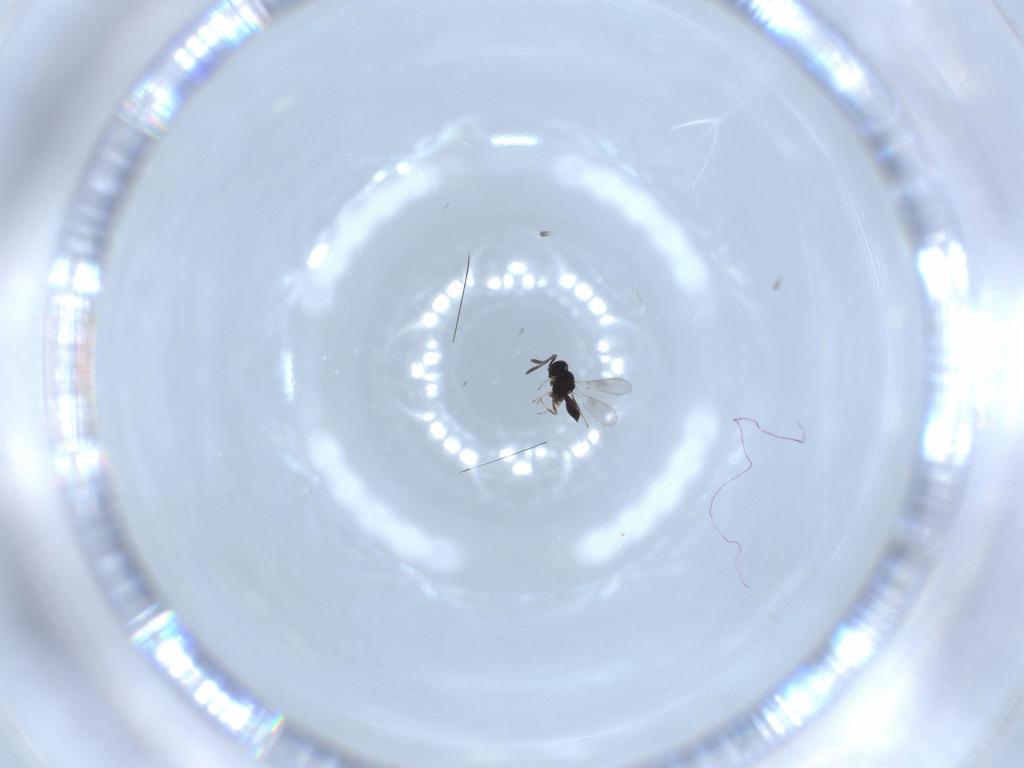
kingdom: Animalia
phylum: Arthropoda
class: Insecta
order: Hymenoptera
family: Scelionidae
